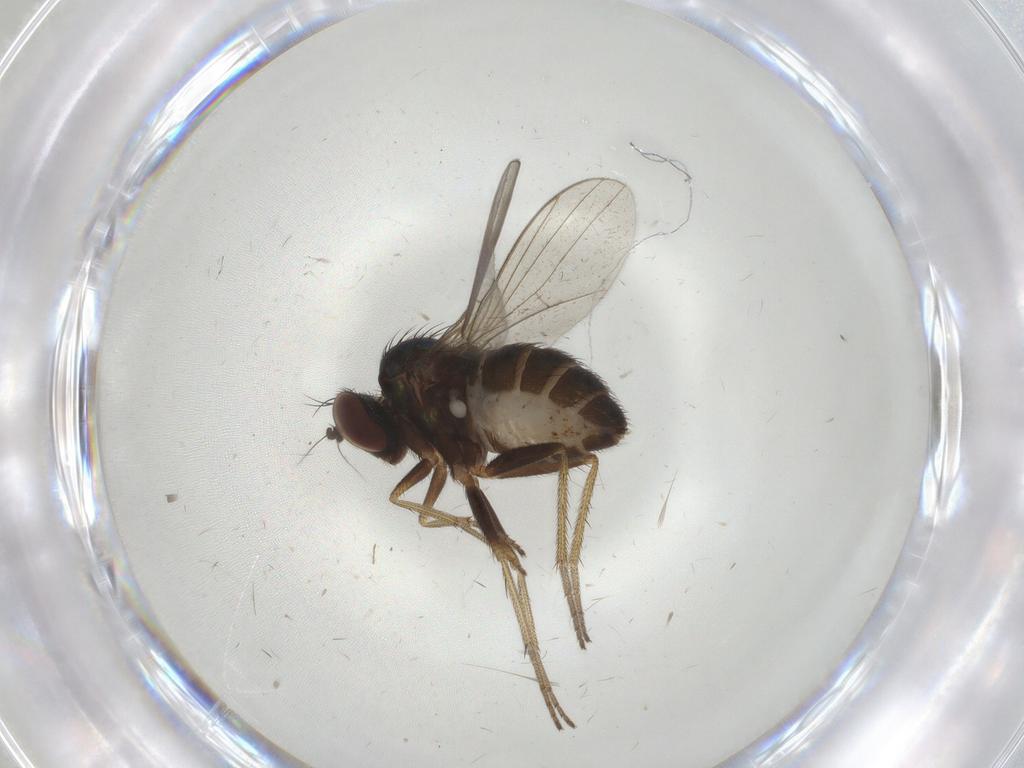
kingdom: Animalia
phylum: Arthropoda
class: Insecta
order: Diptera
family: Dolichopodidae
